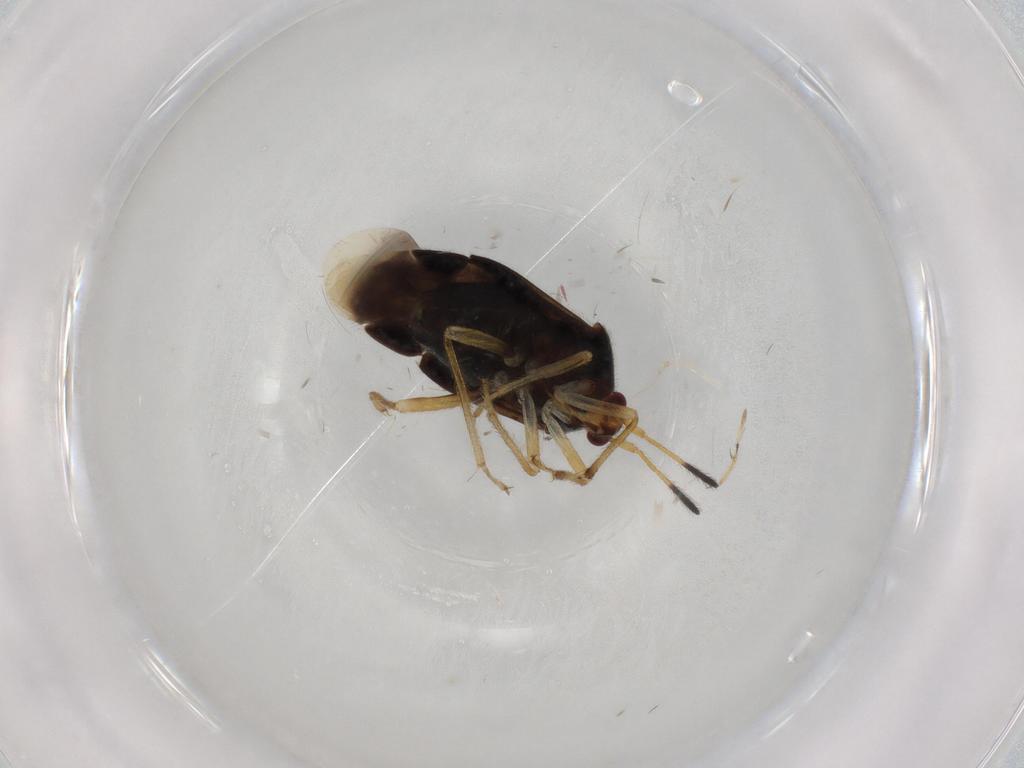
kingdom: Animalia
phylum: Arthropoda
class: Insecta
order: Hemiptera
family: Miridae
